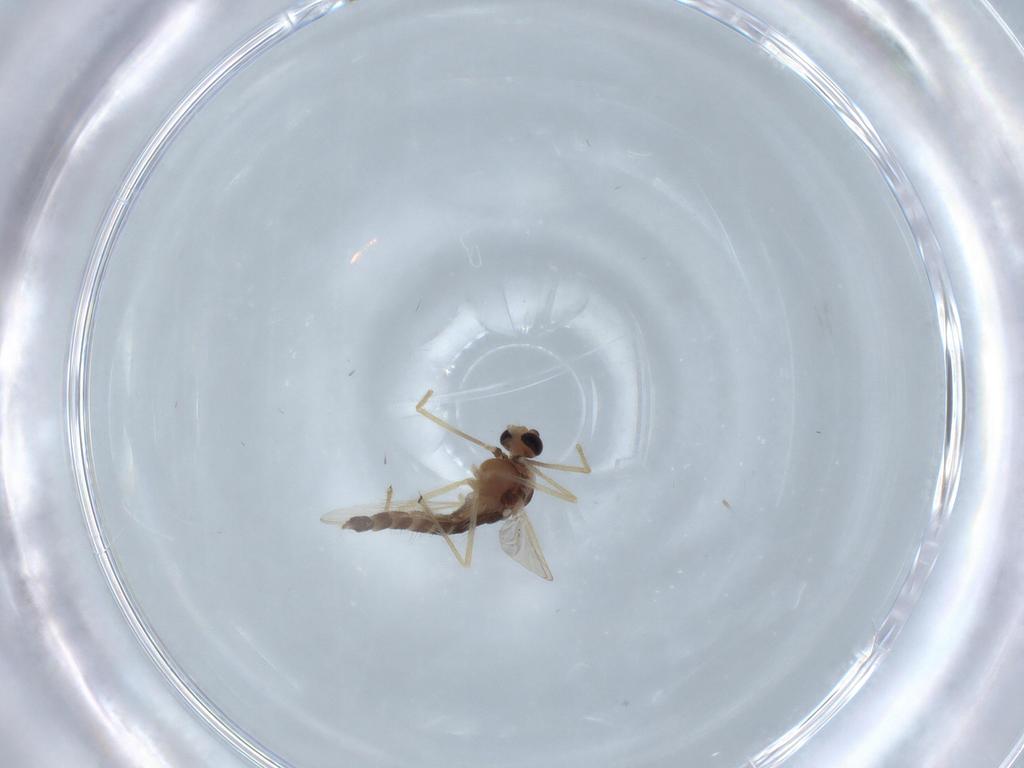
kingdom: Animalia
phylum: Arthropoda
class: Insecta
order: Diptera
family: Chironomidae
